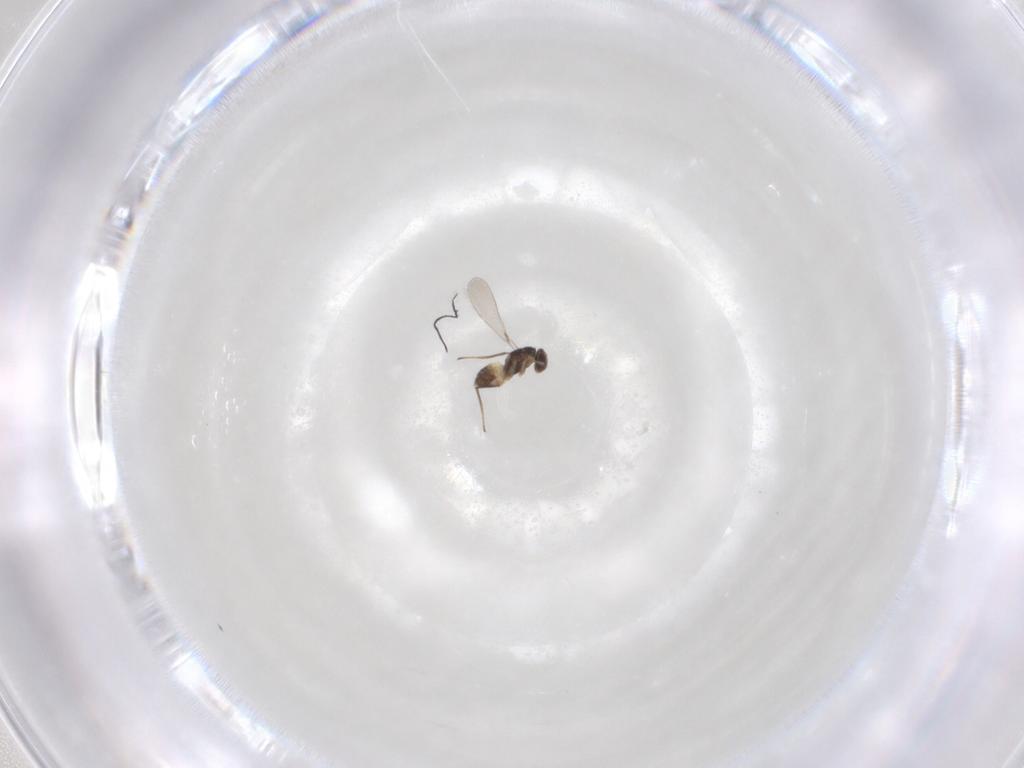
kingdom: Animalia
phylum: Arthropoda
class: Insecta
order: Hymenoptera
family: Mymaridae
